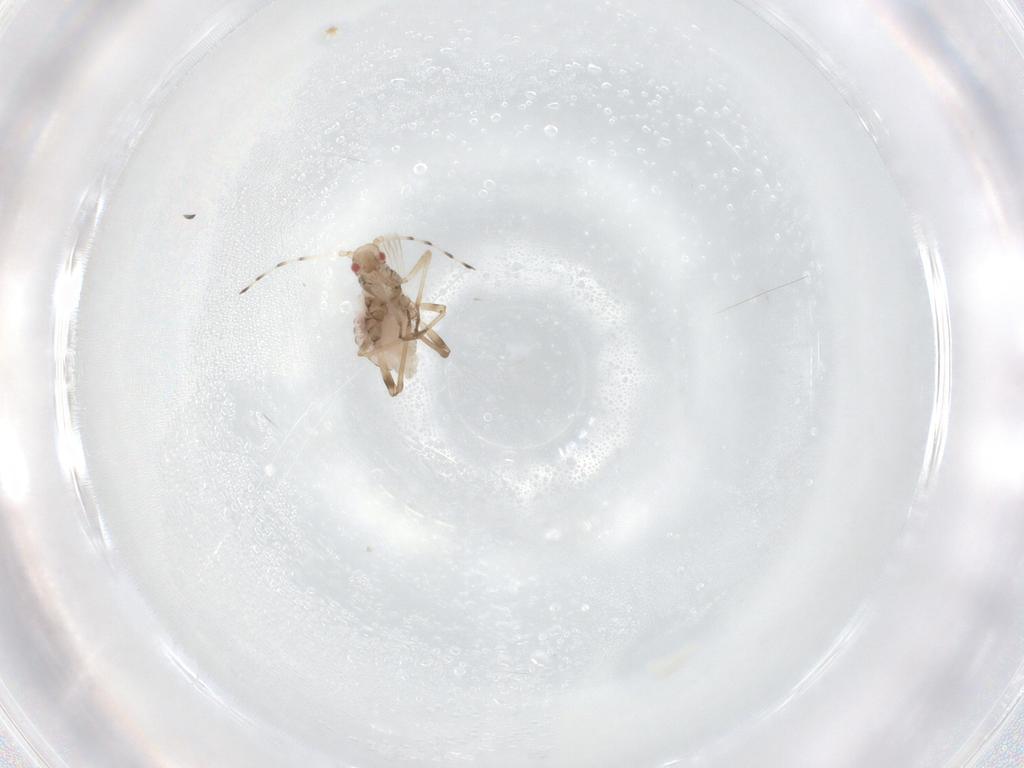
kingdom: Animalia
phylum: Arthropoda
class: Insecta
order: Hemiptera
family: Aphididae
